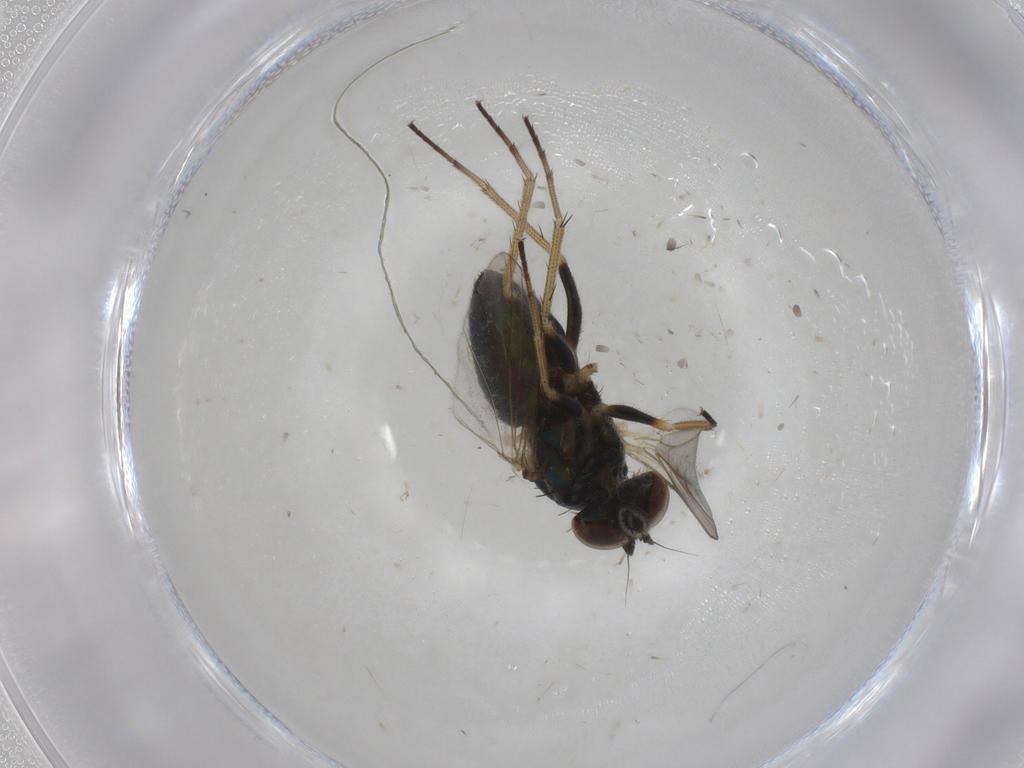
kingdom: Animalia
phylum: Arthropoda
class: Insecta
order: Diptera
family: Dolichopodidae
